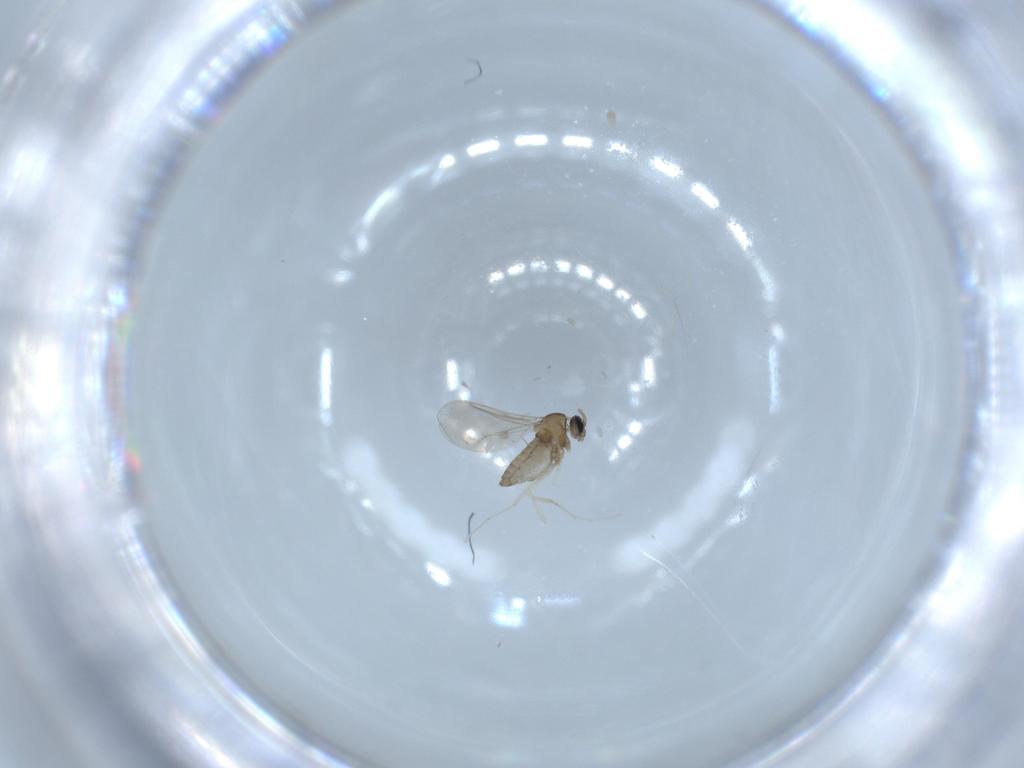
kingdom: Animalia
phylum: Arthropoda
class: Insecta
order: Diptera
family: Cecidomyiidae
